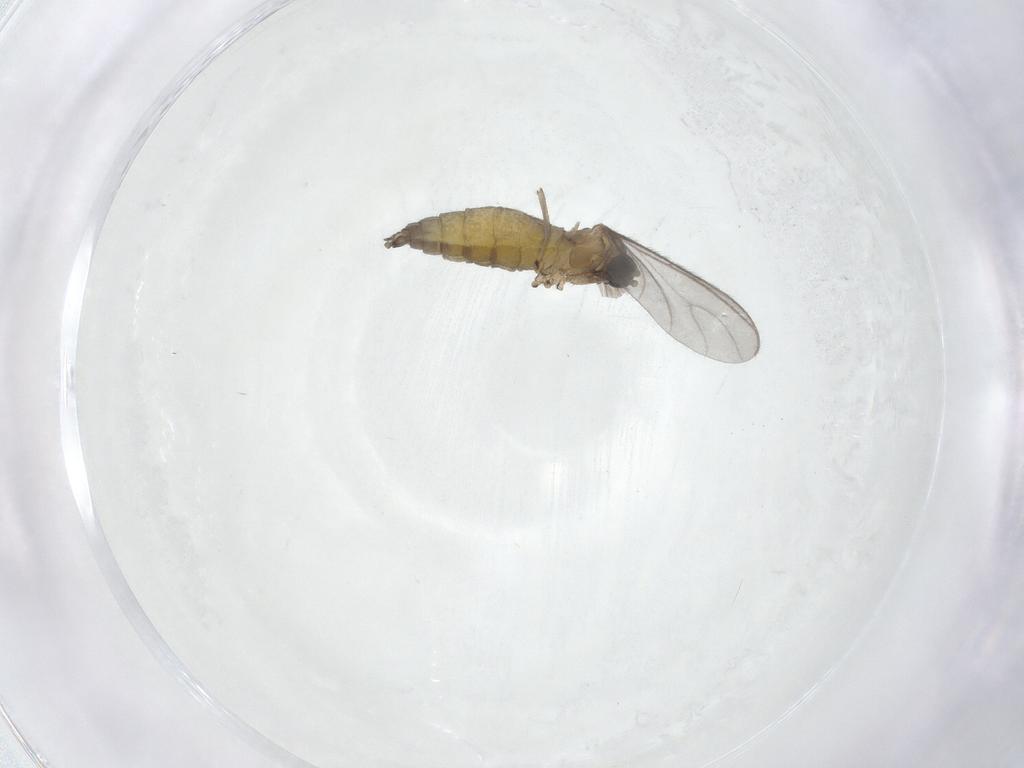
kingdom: Animalia
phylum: Arthropoda
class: Insecta
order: Diptera
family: Sciaridae
